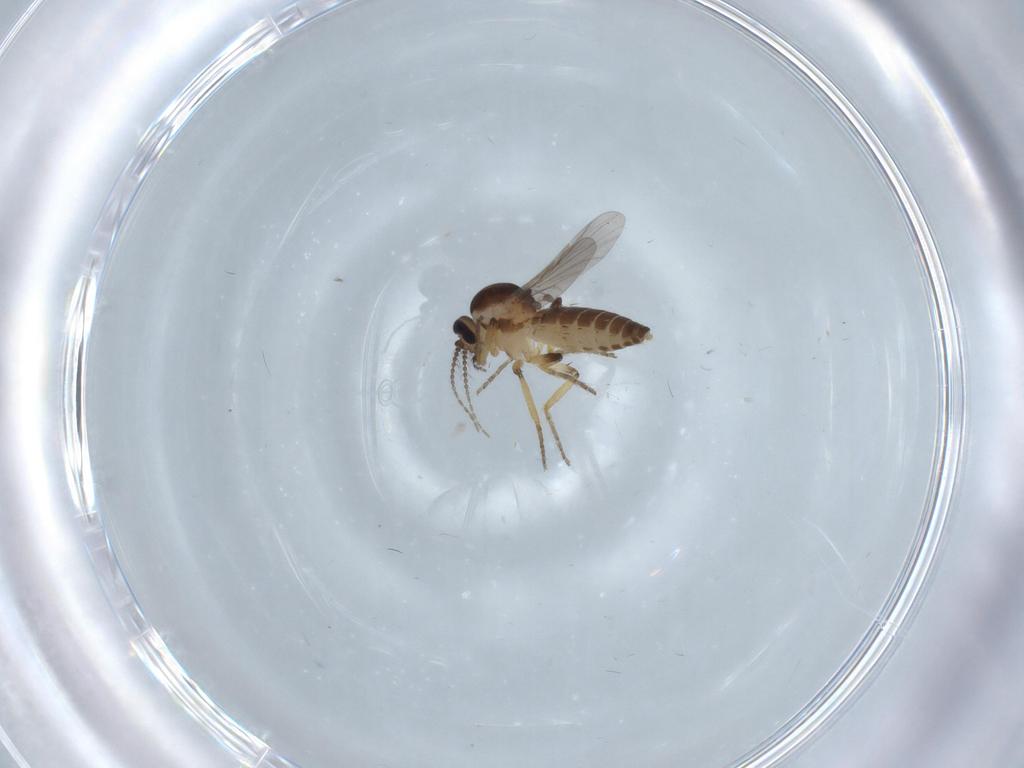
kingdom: Animalia
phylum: Arthropoda
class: Insecta
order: Diptera
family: Ceratopogonidae
